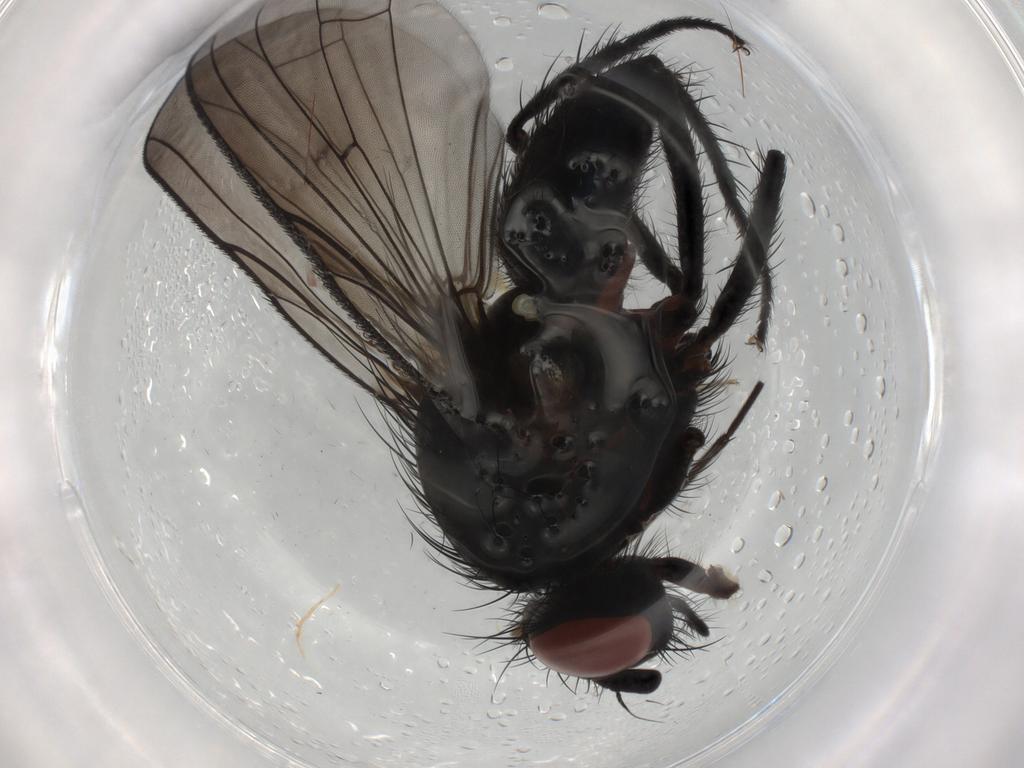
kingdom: Animalia
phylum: Arthropoda
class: Insecta
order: Diptera
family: Anthomyiidae
